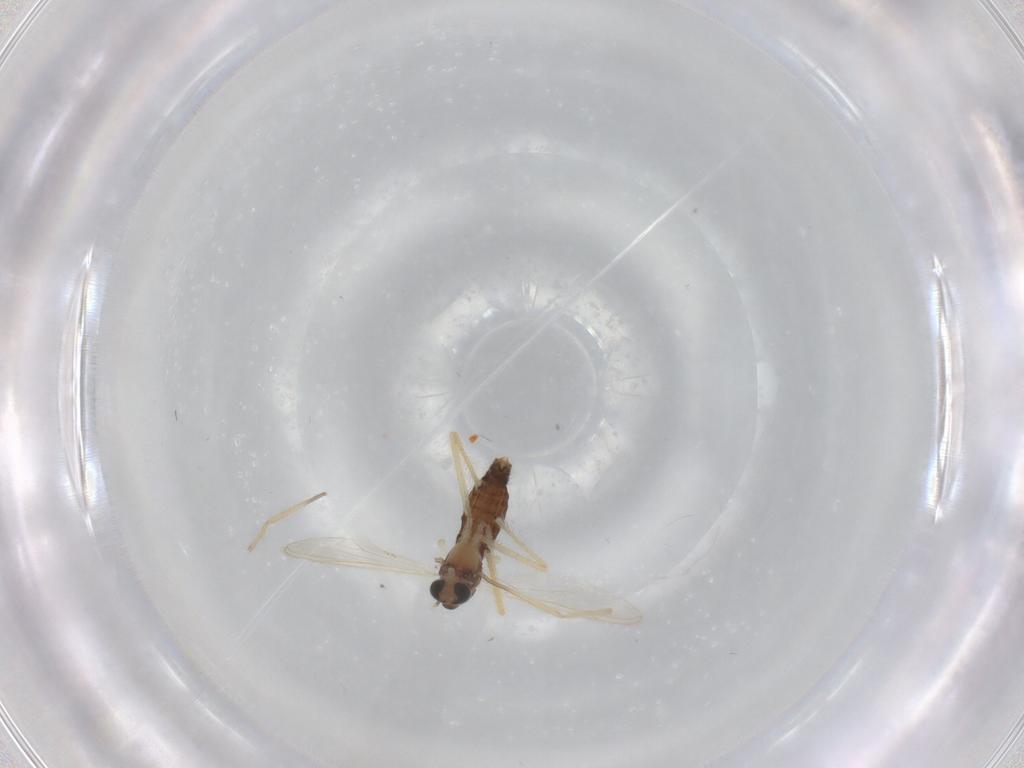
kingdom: Animalia
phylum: Arthropoda
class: Insecta
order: Diptera
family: Chironomidae
